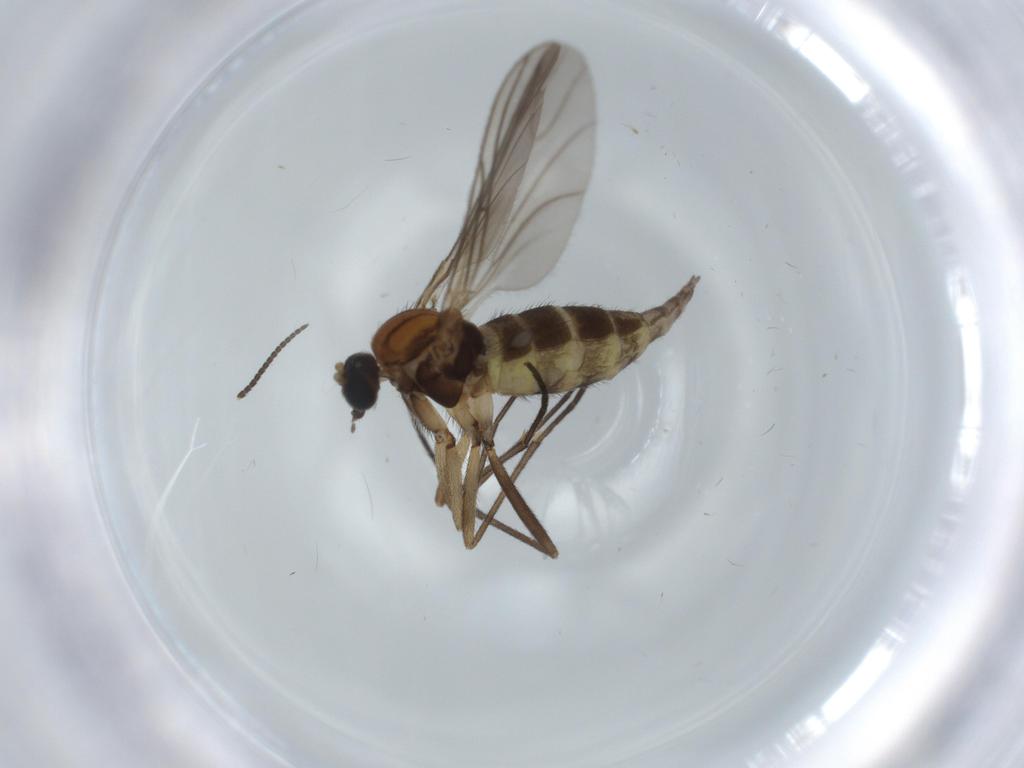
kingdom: Animalia
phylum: Arthropoda
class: Insecta
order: Diptera
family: Sciaridae
